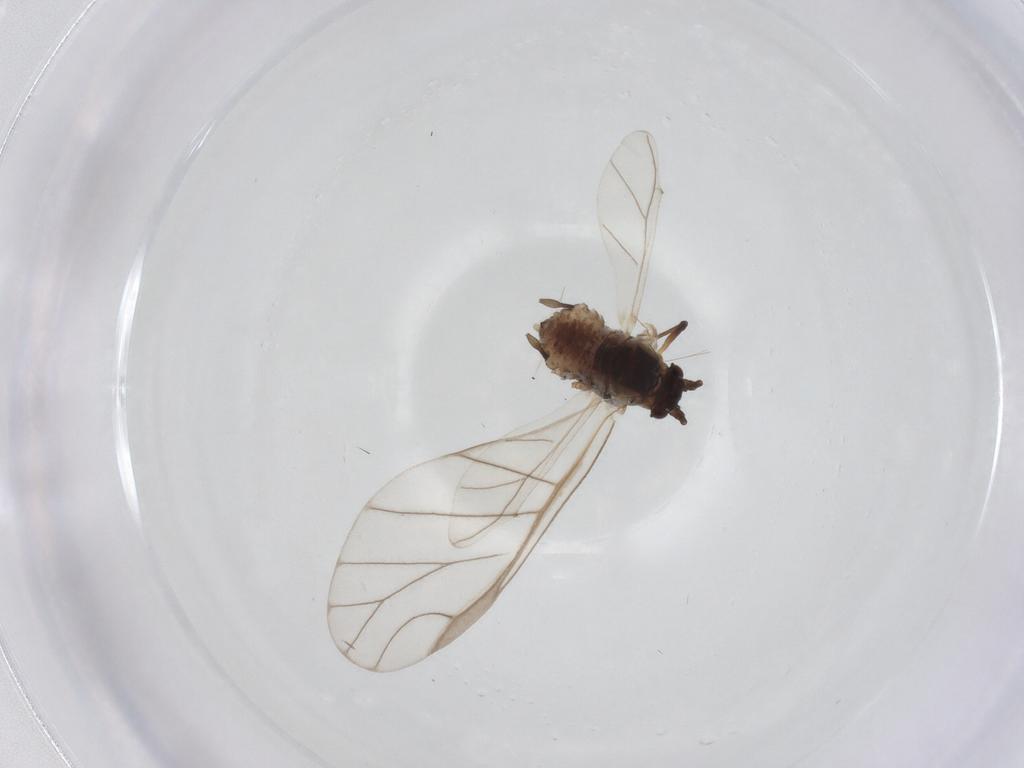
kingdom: Animalia
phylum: Arthropoda
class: Insecta
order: Hemiptera
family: Aphididae
